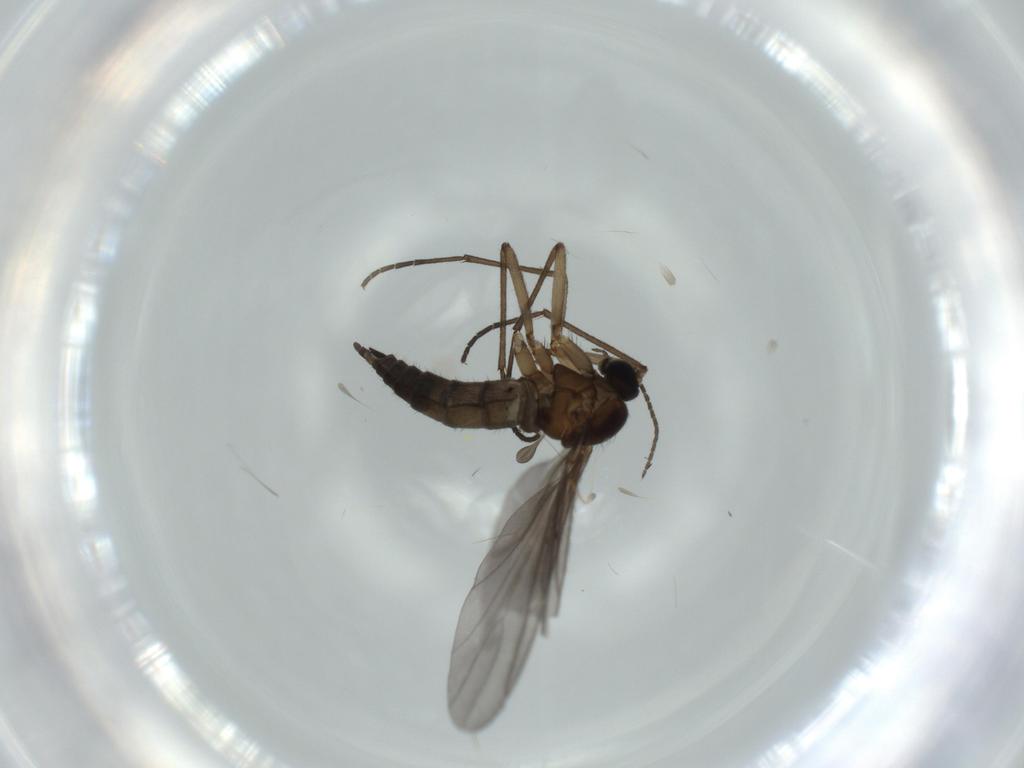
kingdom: Animalia
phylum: Arthropoda
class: Insecta
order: Diptera
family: Sciaridae
